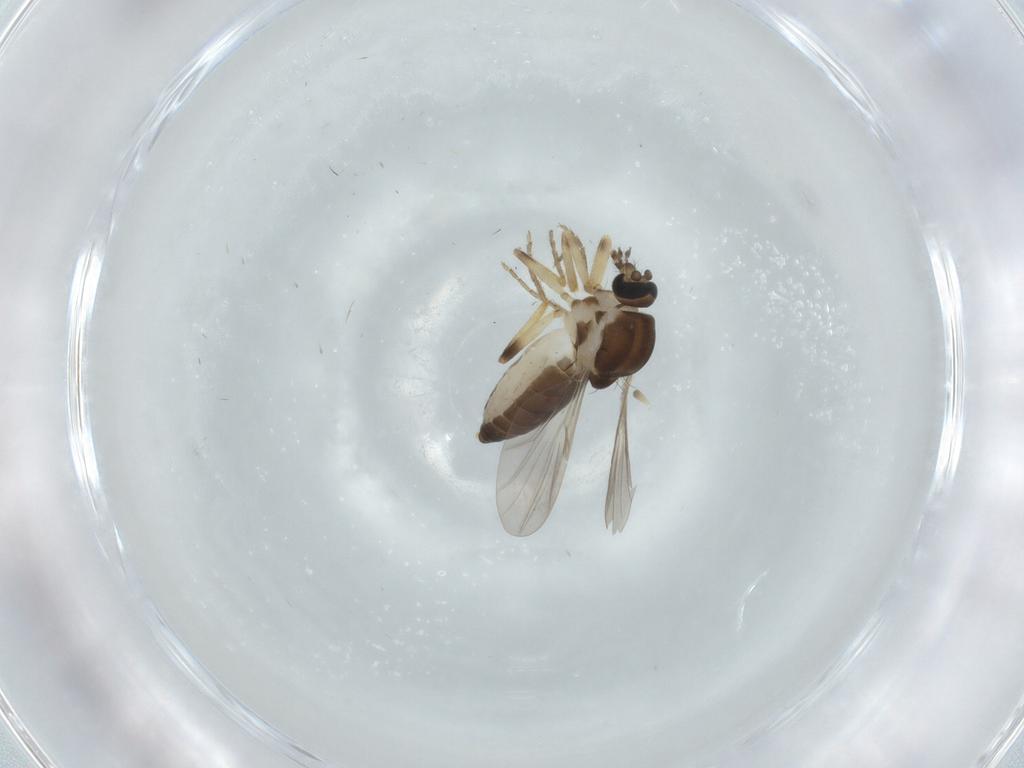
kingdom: Animalia
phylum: Arthropoda
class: Insecta
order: Diptera
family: Ceratopogonidae
